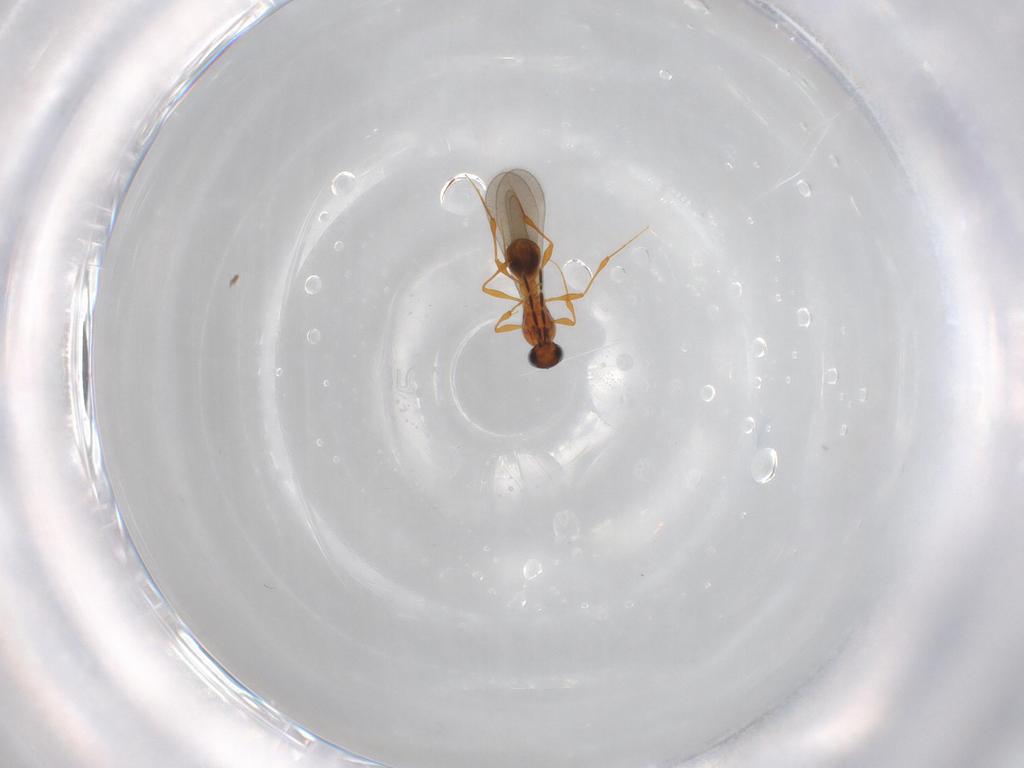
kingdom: Animalia
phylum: Arthropoda
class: Insecta
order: Hymenoptera
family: Platygastridae
